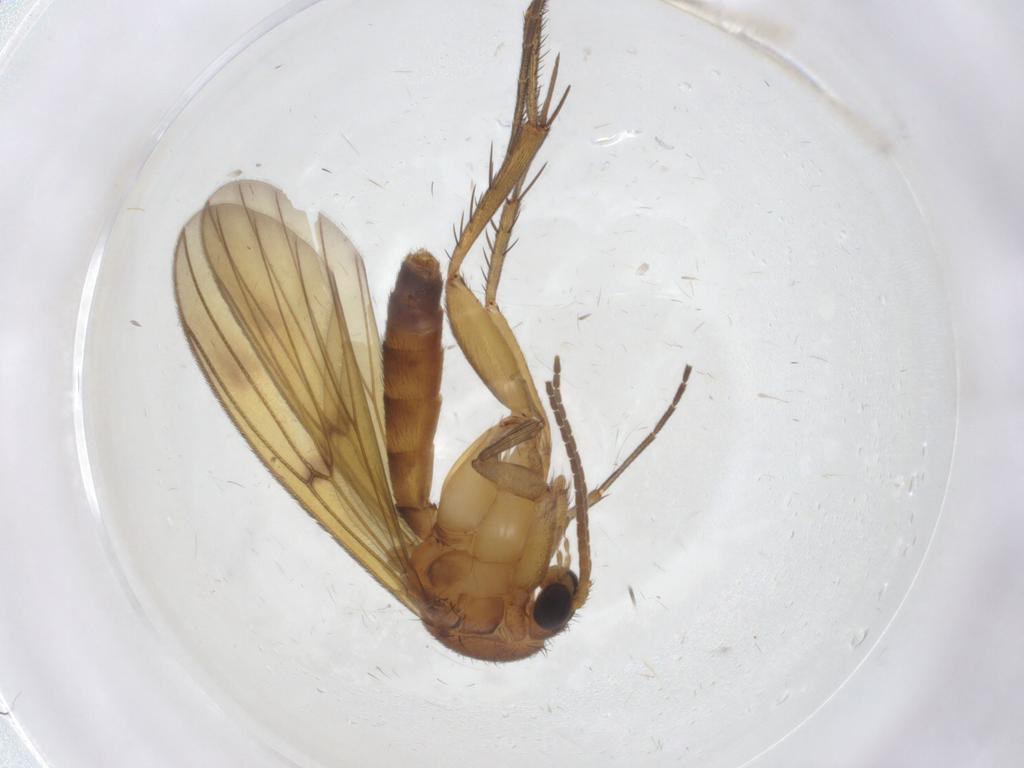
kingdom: Animalia
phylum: Arthropoda
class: Insecta
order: Diptera
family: Mycetophilidae
